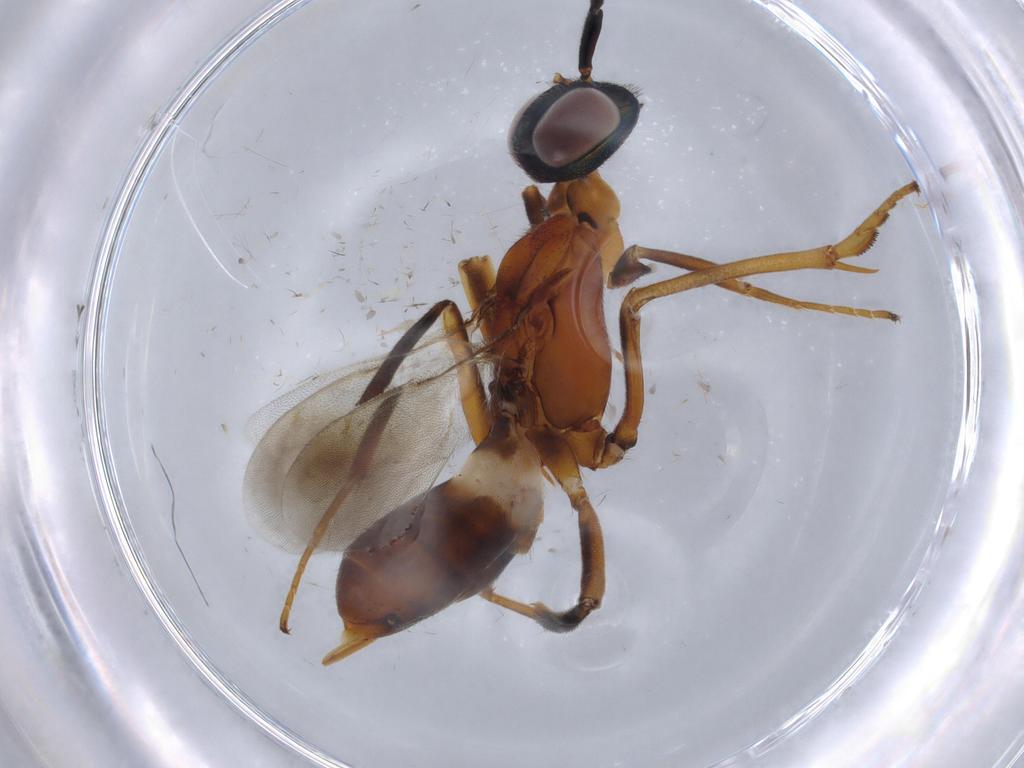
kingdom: Animalia
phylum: Arthropoda
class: Insecta
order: Hymenoptera
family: Eupelmidae
